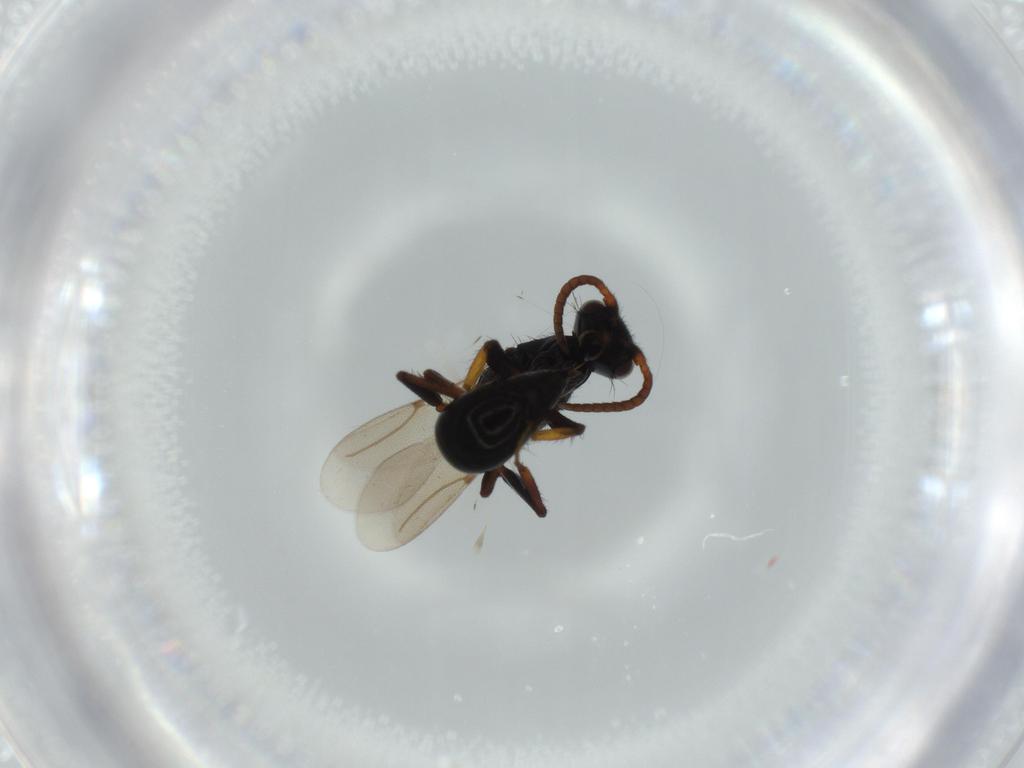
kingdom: Animalia
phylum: Arthropoda
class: Insecta
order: Hymenoptera
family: Bethylidae
